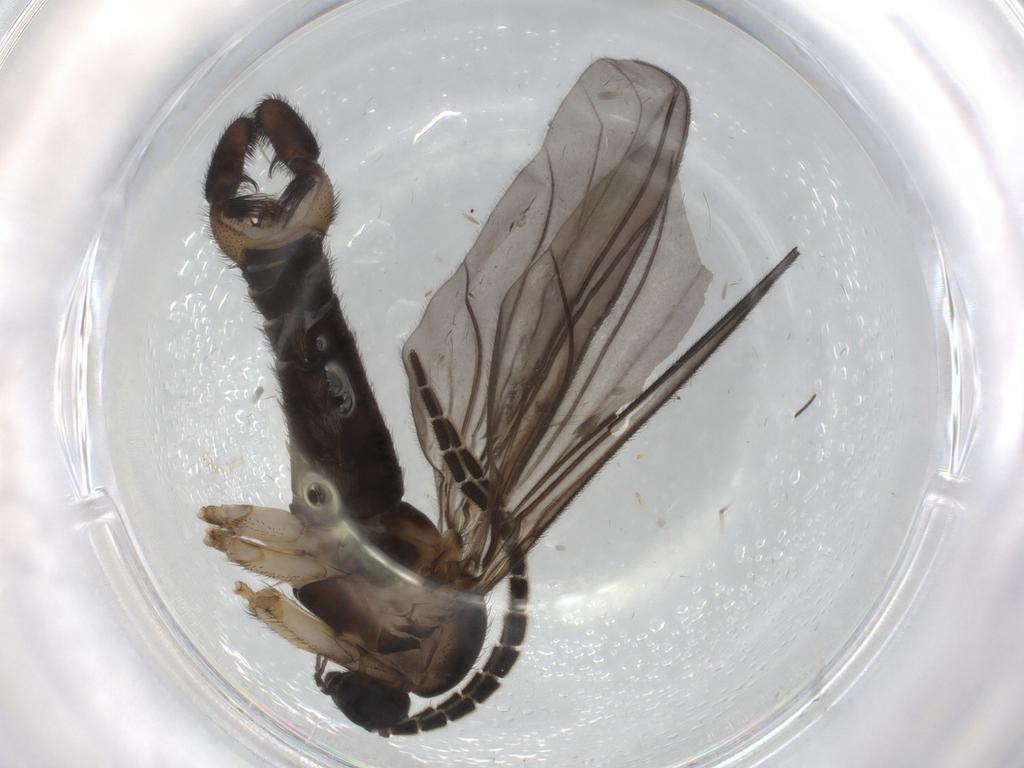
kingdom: Animalia
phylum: Arthropoda
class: Insecta
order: Diptera
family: Sciaridae
